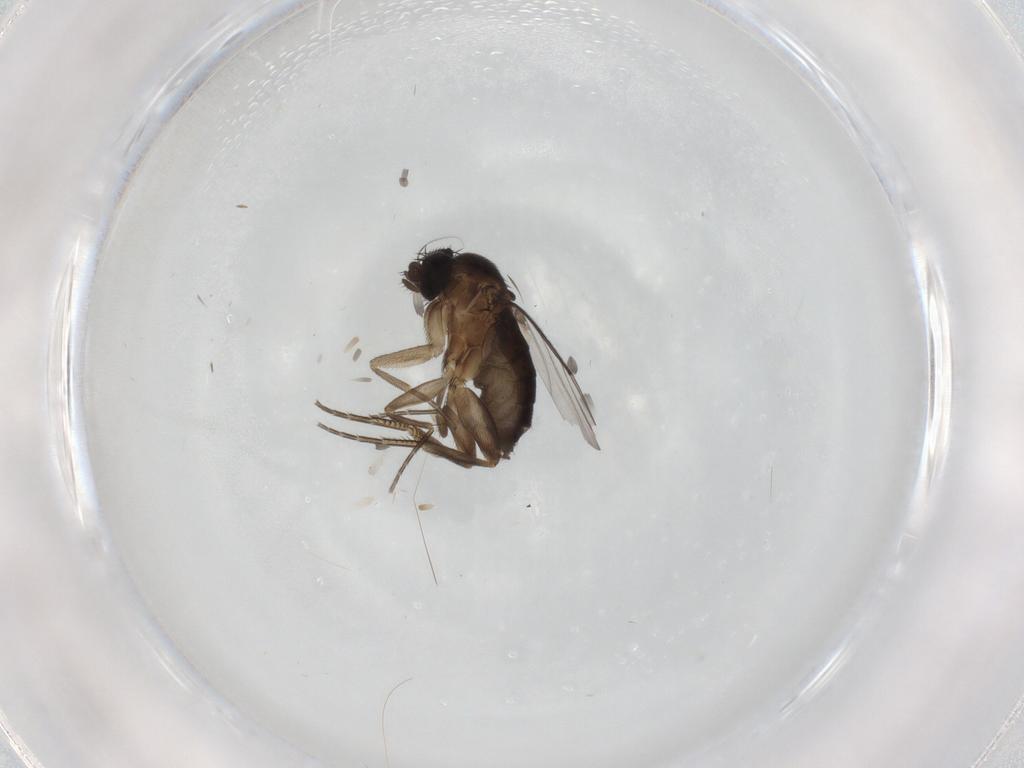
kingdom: Animalia
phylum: Arthropoda
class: Insecta
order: Diptera
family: Phoridae
